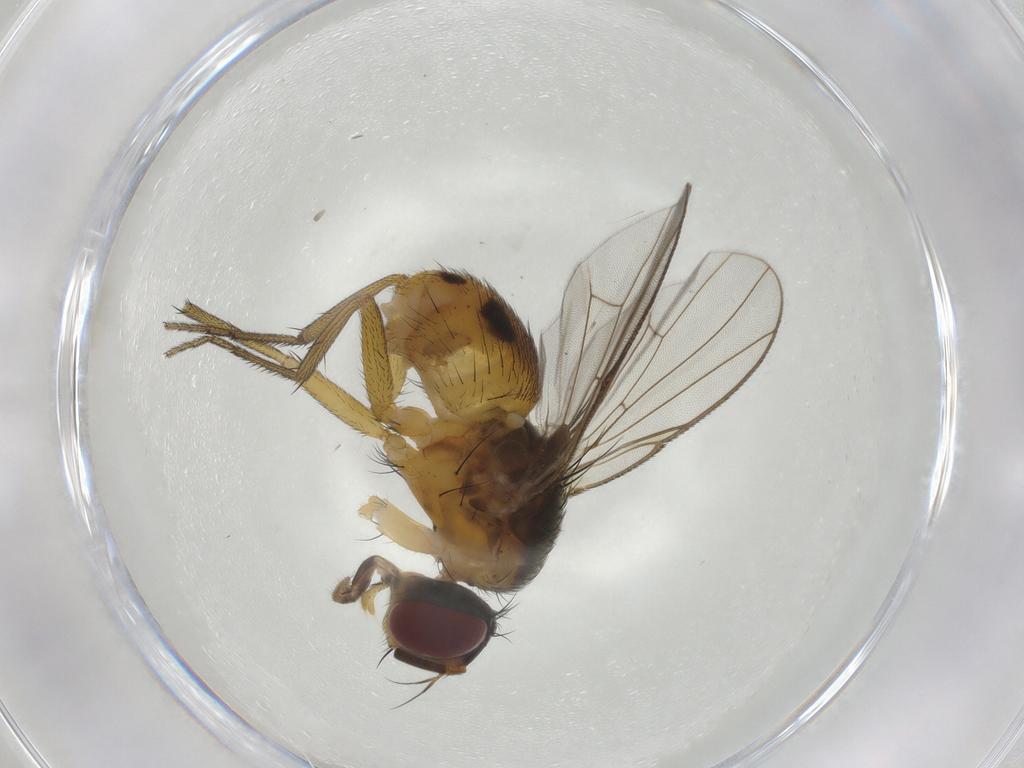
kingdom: Animalia
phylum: Arthropoda
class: Insecta
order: Diptera
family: Muscidae
